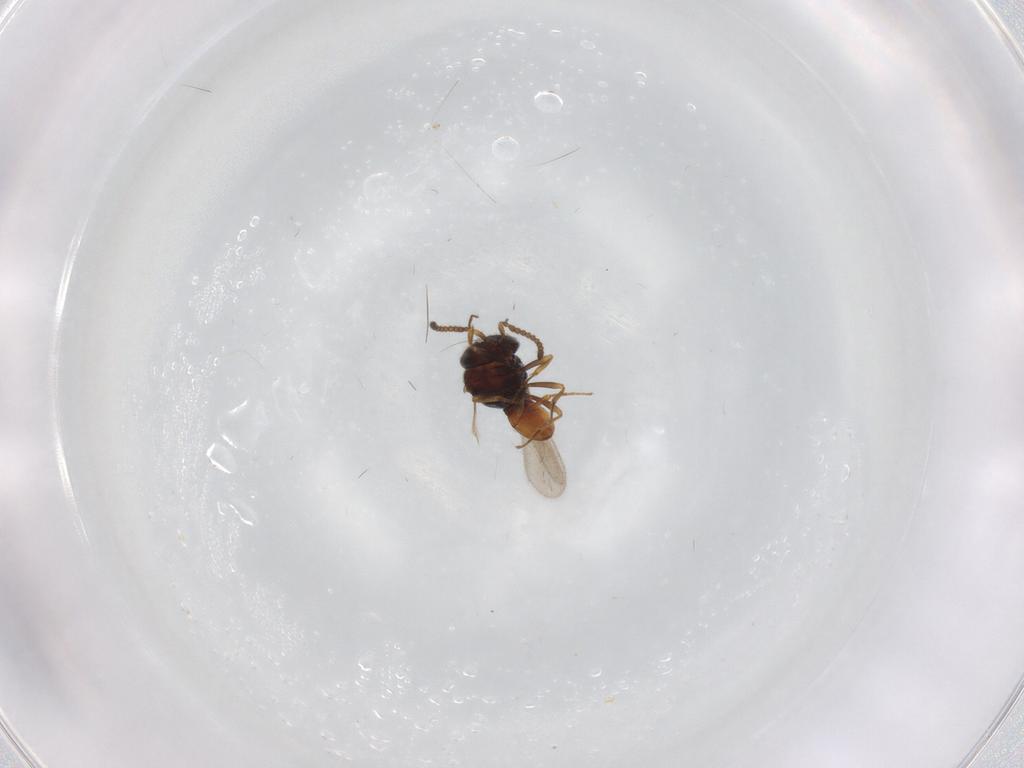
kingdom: Animalia
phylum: Arthropoda
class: Insecta
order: Hymenoptera
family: Scelionidae
